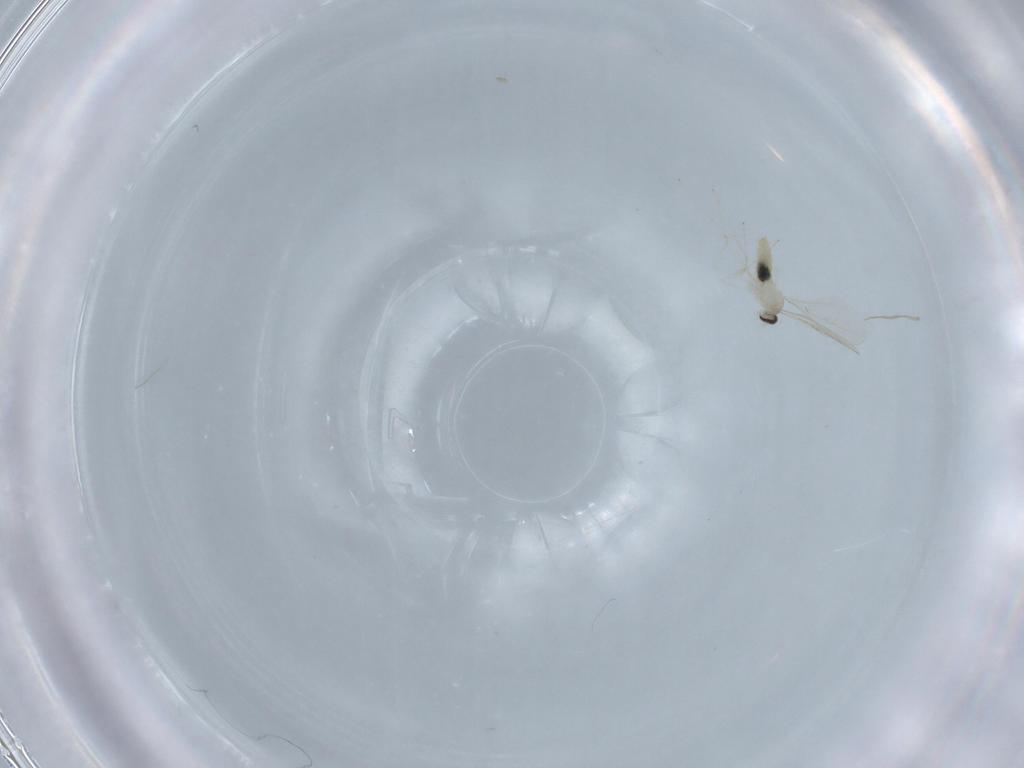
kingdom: Animalia
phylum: Arthropoda
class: Insecta
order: Diptera
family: Cecidomyiidae
